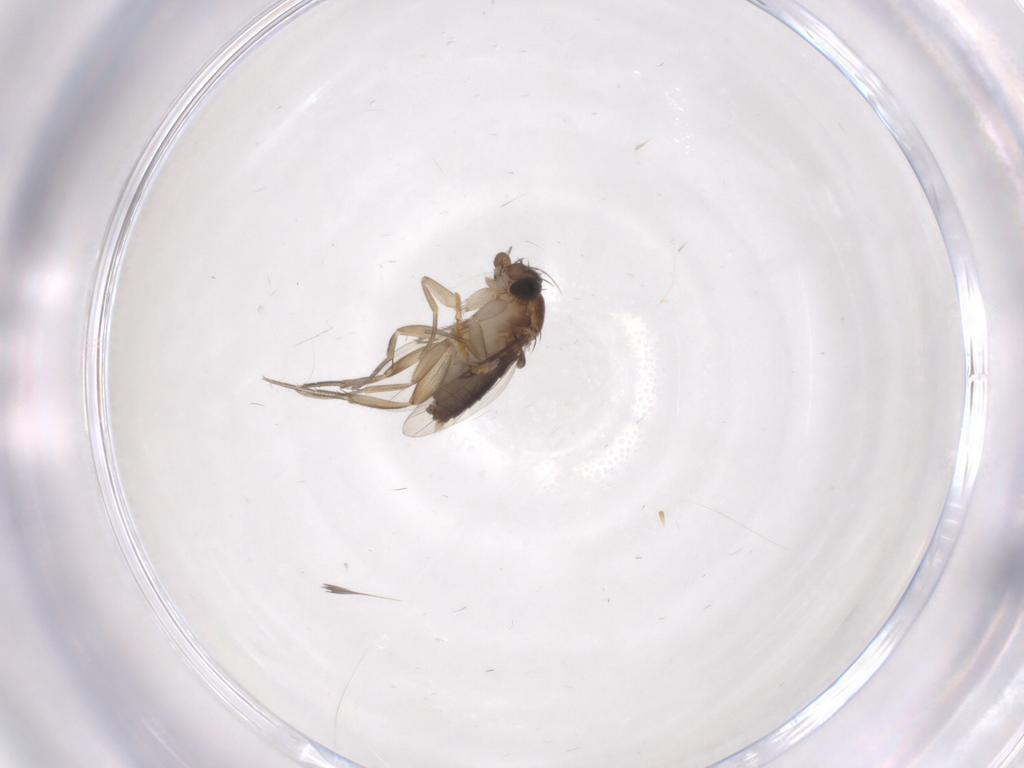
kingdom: Animalia
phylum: Arthropoda
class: Insecta
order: Diptera
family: Phoridae
